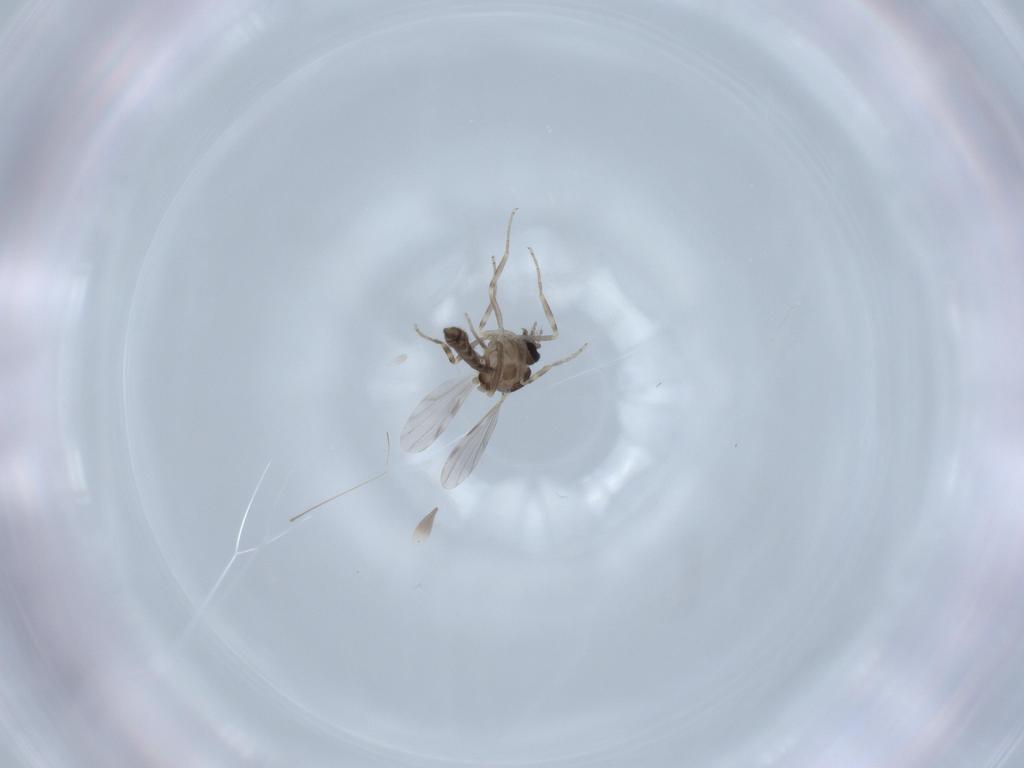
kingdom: Animalia
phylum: Arthropoda
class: Insecta
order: Diptera
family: Ceratopogonidae
